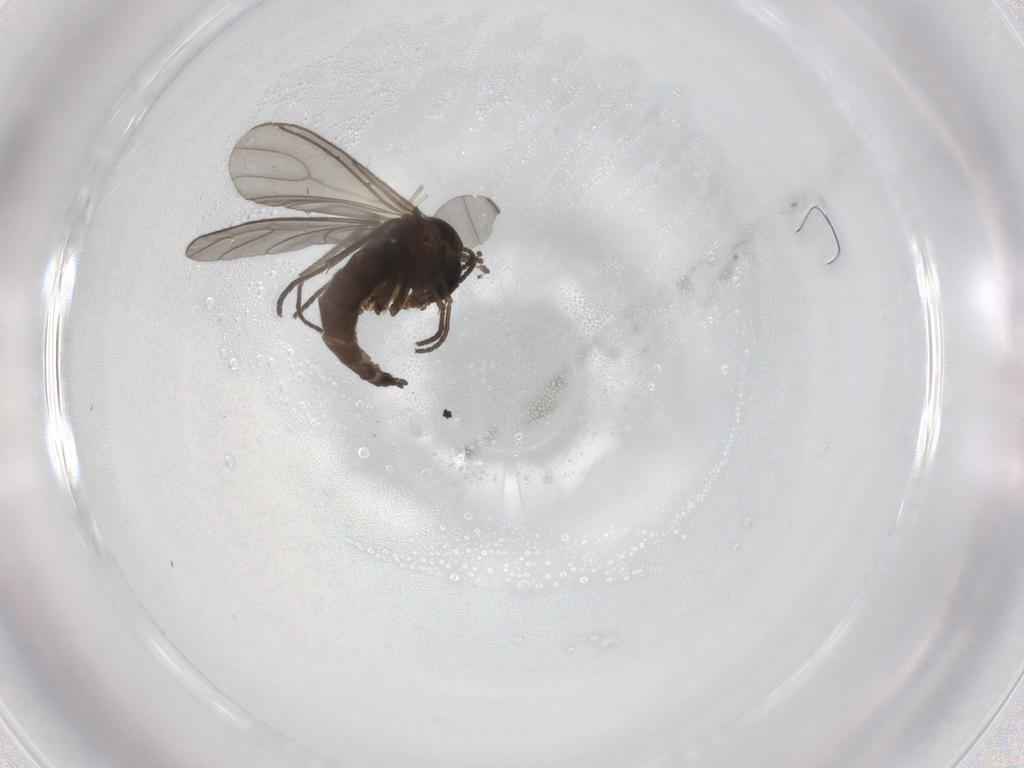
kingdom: Animalia
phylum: Arthropoda
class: Insecta
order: Diptera
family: Sciaridae
